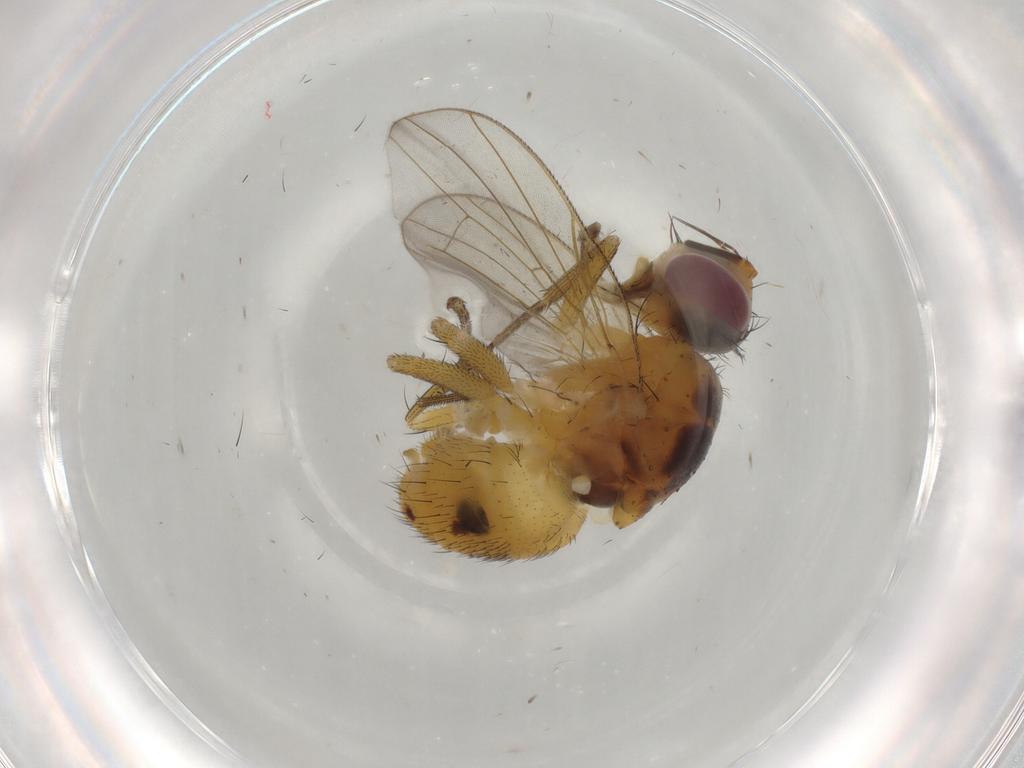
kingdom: Animalia
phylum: Arthropoda
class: Insecta
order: Diptera
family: Muscidae
